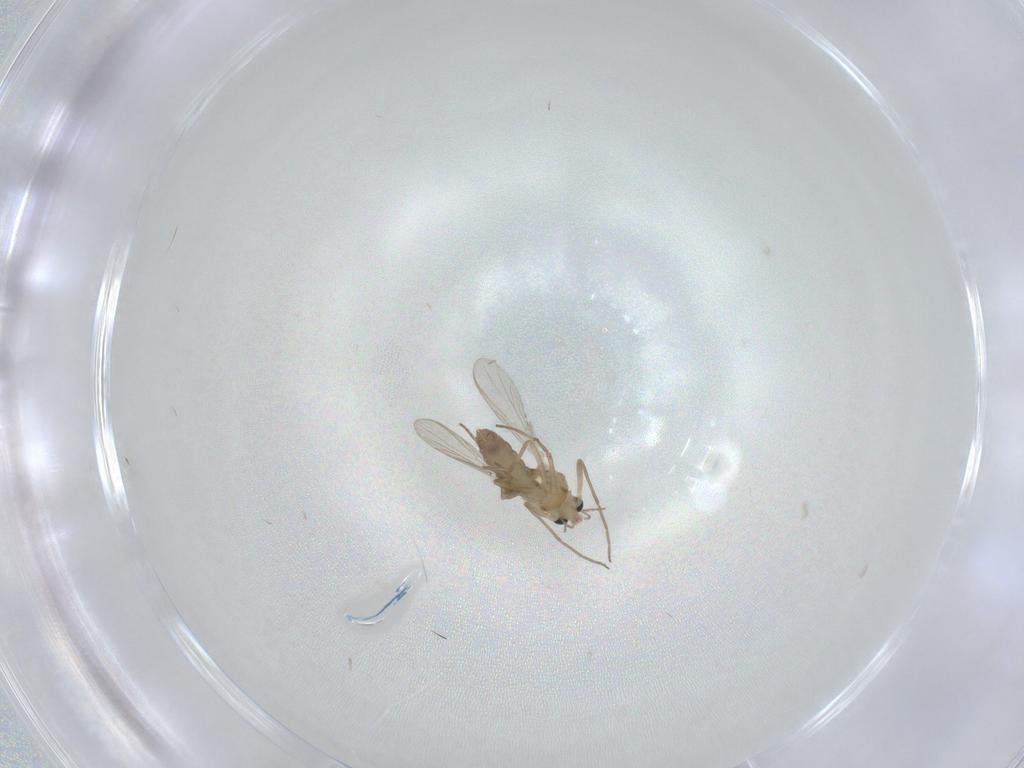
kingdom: Animalia
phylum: Arthropoda
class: Insecta
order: Diptera
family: Chironomidae
